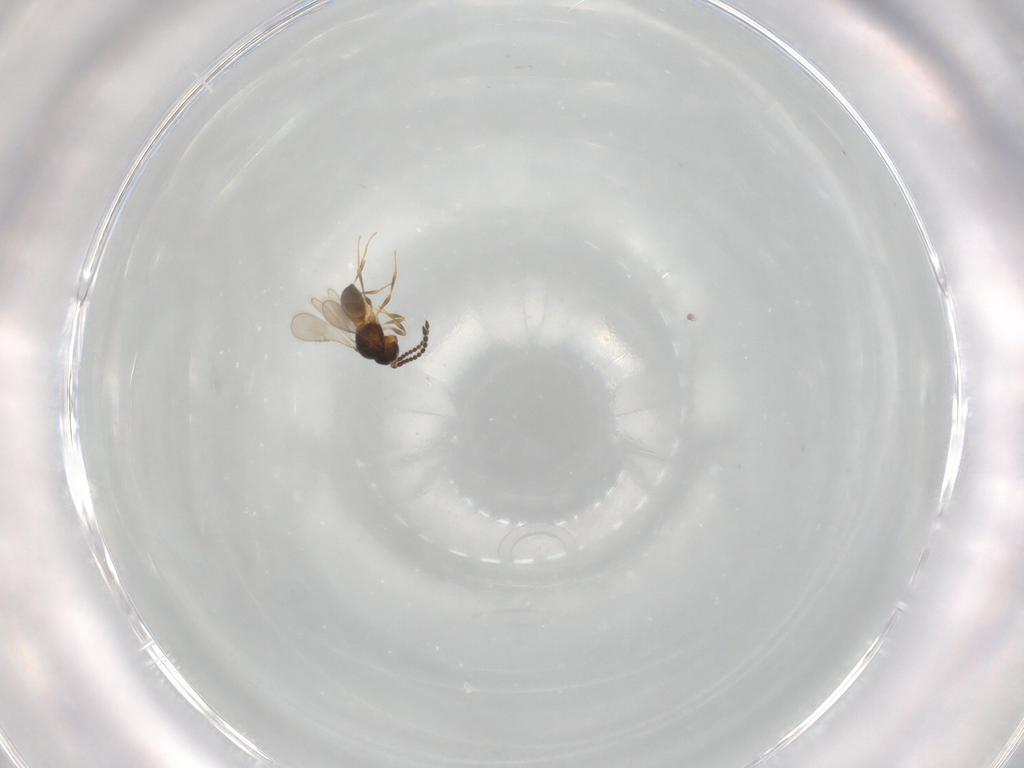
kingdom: Animalia
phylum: Arthropoda
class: Insecta
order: Hymenoptera
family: Scelionidae
